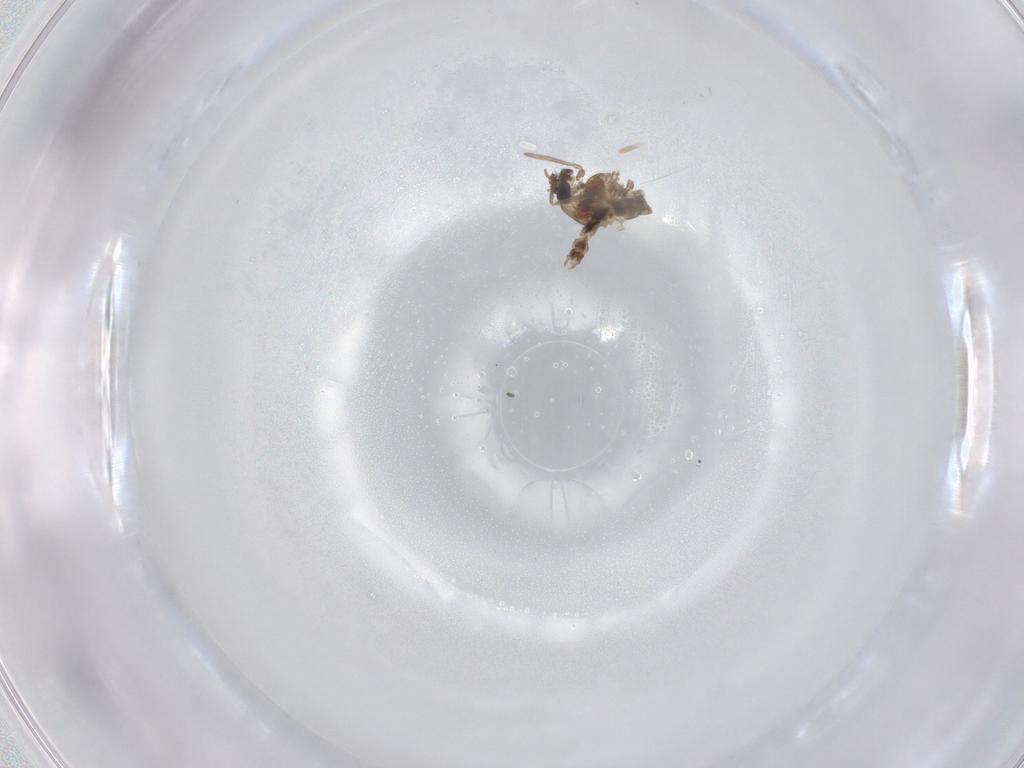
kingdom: Animalia
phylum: Arthropoda
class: Insecta
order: Diptera
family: Chironomidae
